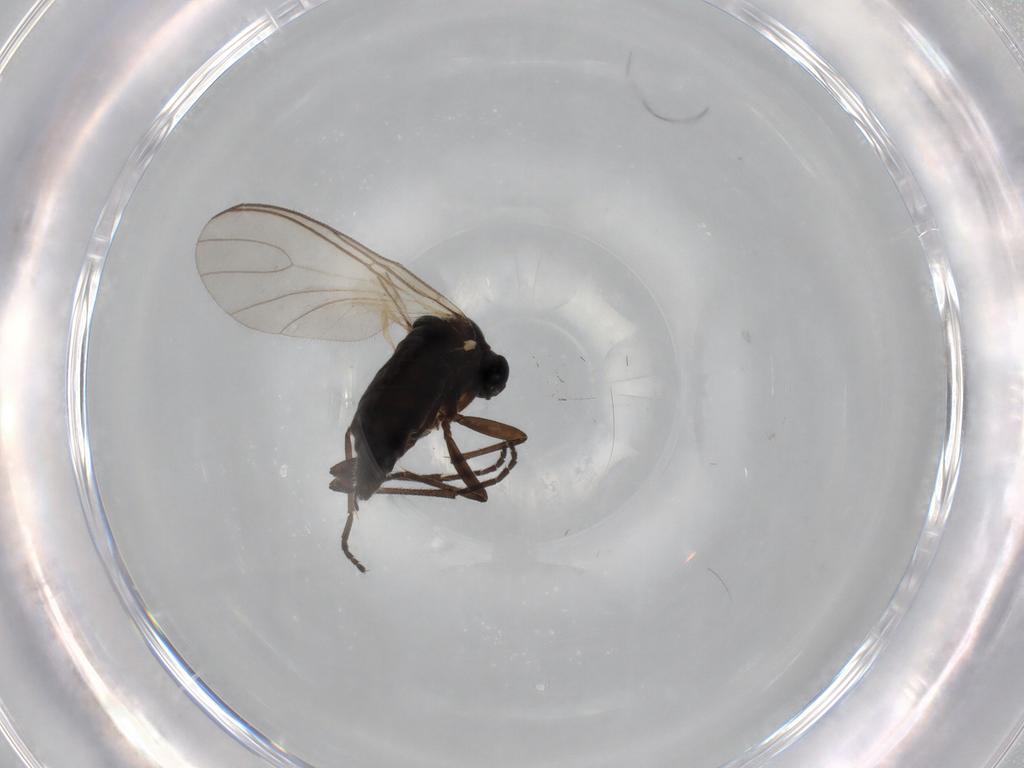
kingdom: Animalia
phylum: Arthropoda
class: Insecta
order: Diptera
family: Sciaridae
